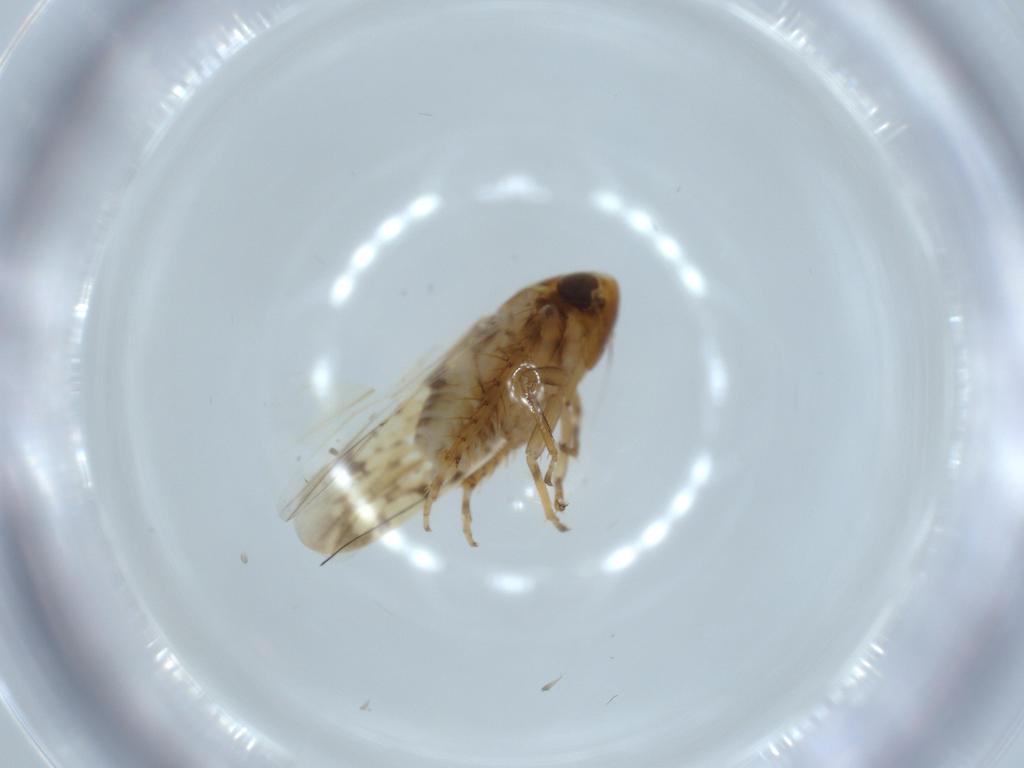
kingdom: Animalia
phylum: Arthropoda
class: Insecta
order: Hemiptera
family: Cicadellidae
